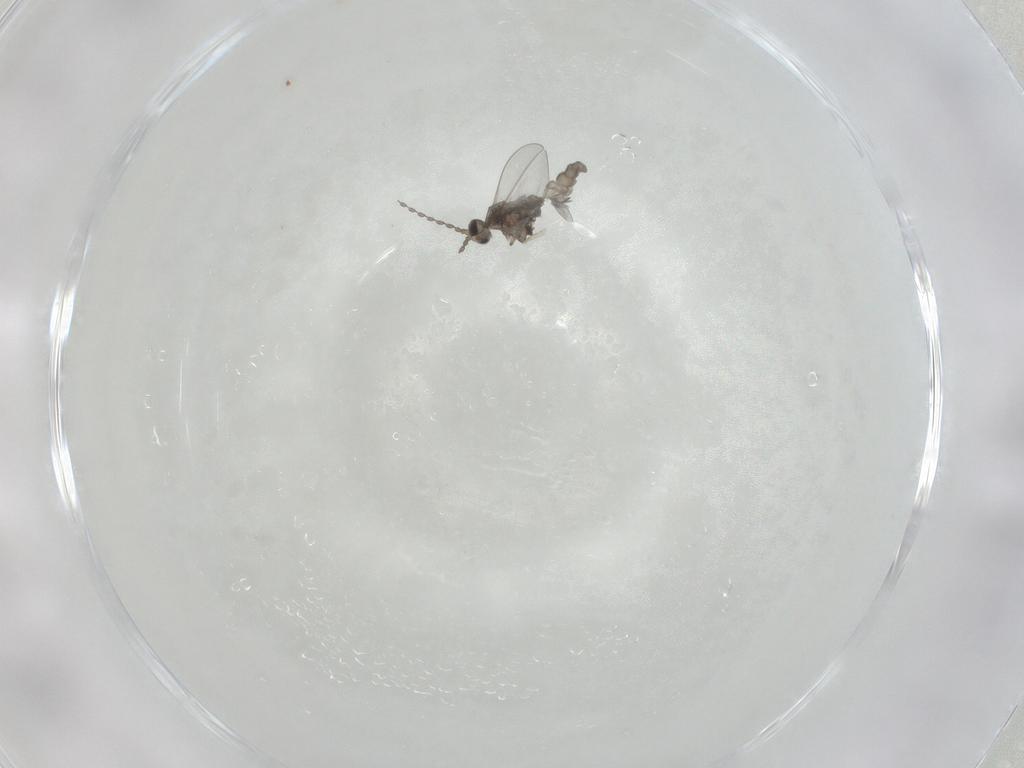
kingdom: Animalia
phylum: Arthropoda
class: Insecta
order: Diptera
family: Cecidomyiidae
